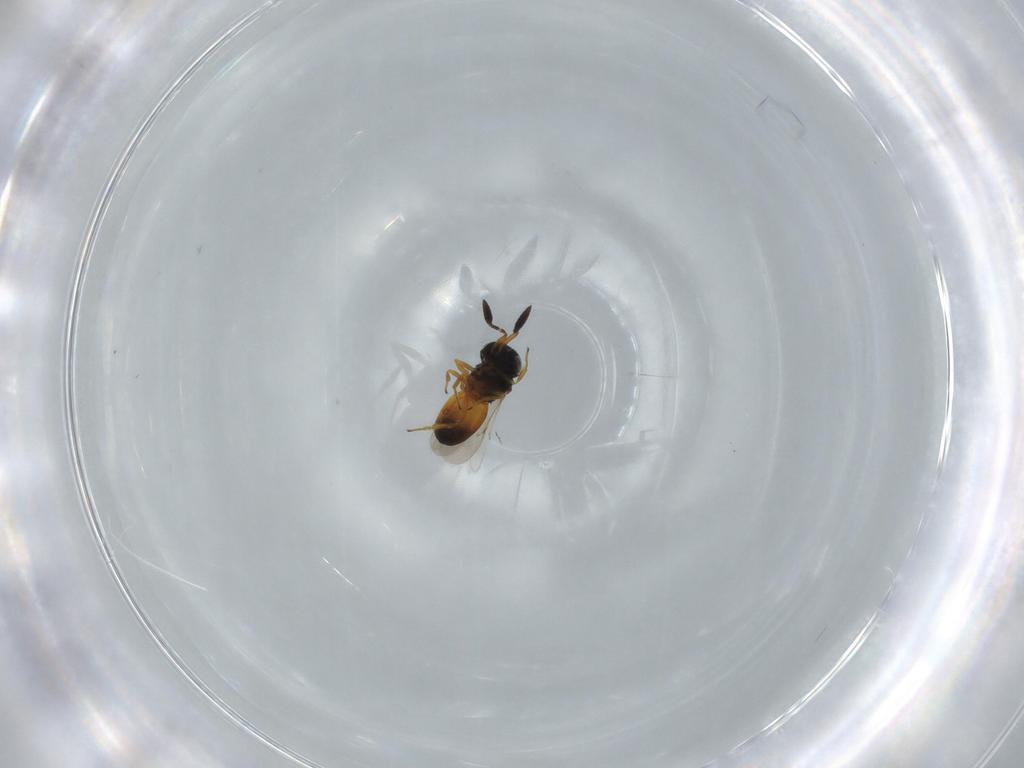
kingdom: Animalia
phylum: Arthropoda
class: Insecta
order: Hymenoptera
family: Scelionidae
